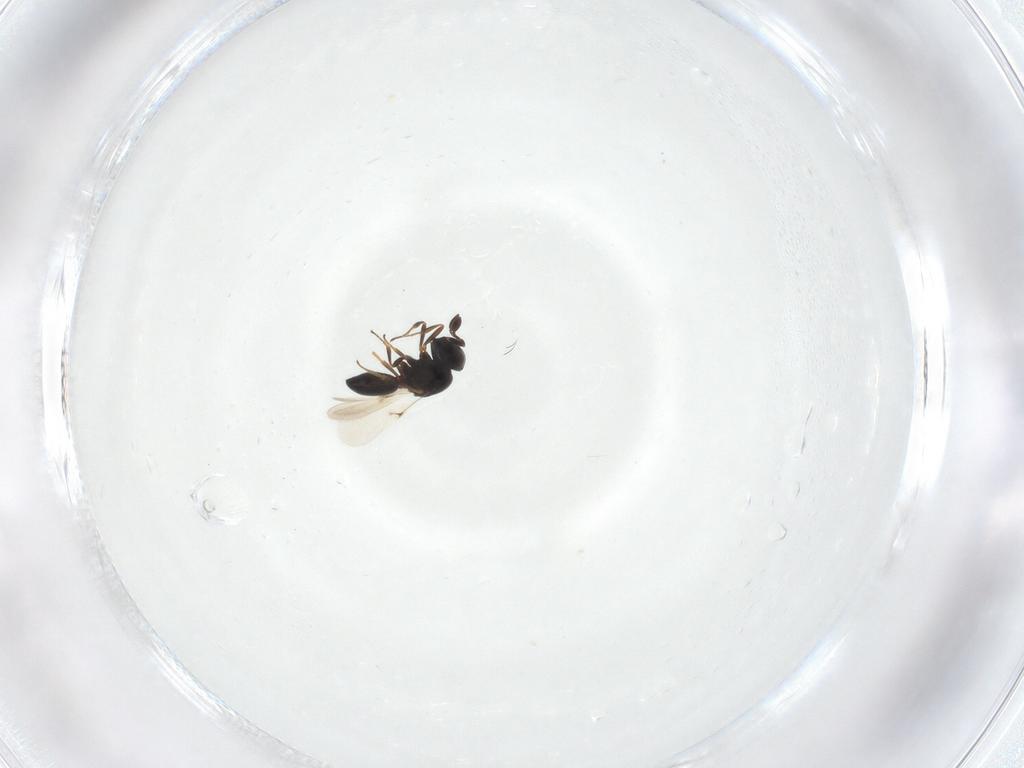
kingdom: Animalia
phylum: Arthropoda
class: Insecta
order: Hymenoptera
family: Scelionidae
